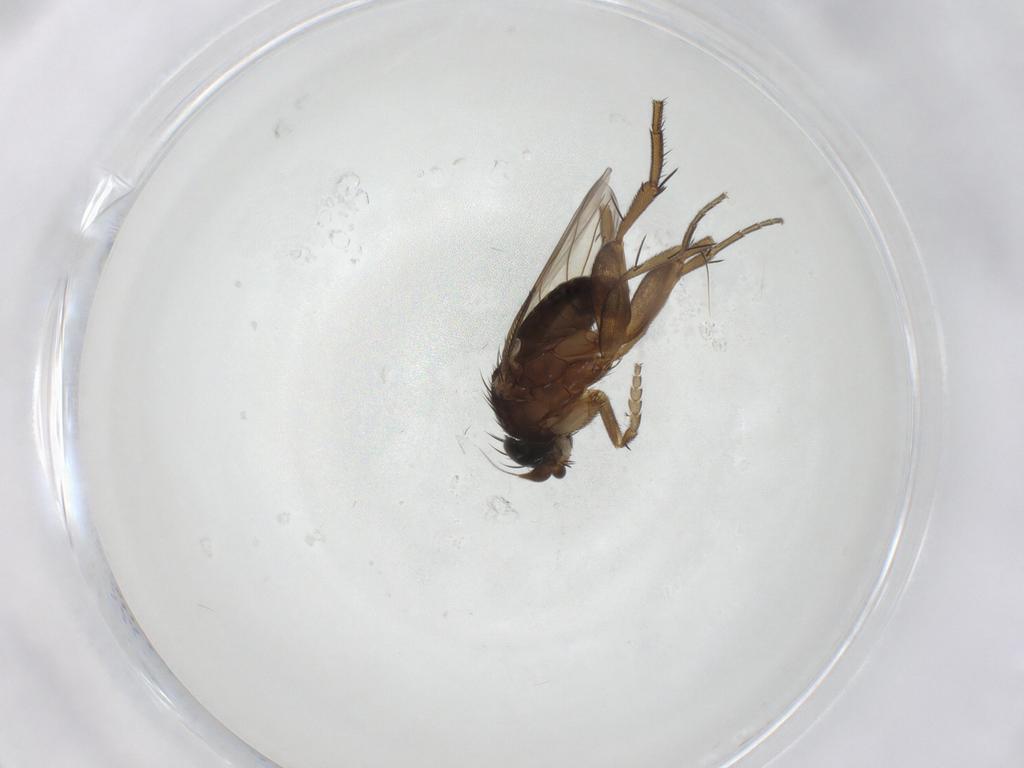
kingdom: Animalia
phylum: Arthropoda
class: Insecta
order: Diptera
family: Phoridae
